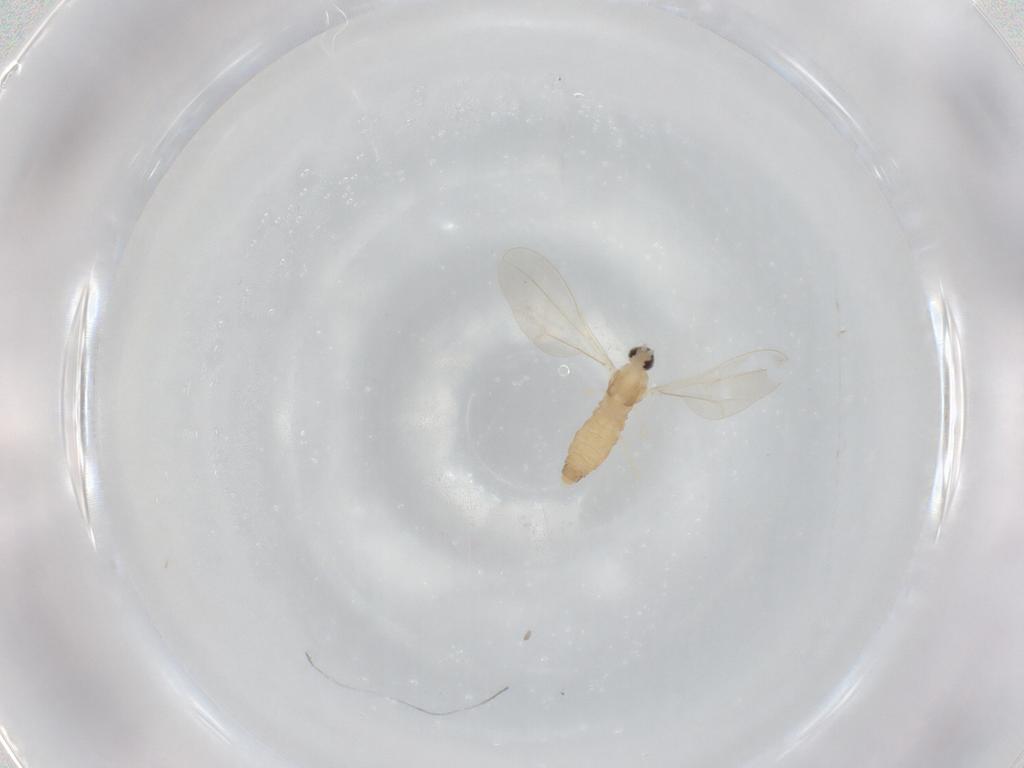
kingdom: Animalia
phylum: Arthropoda
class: Insecta
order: Diptera
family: Cecidomyiidae
